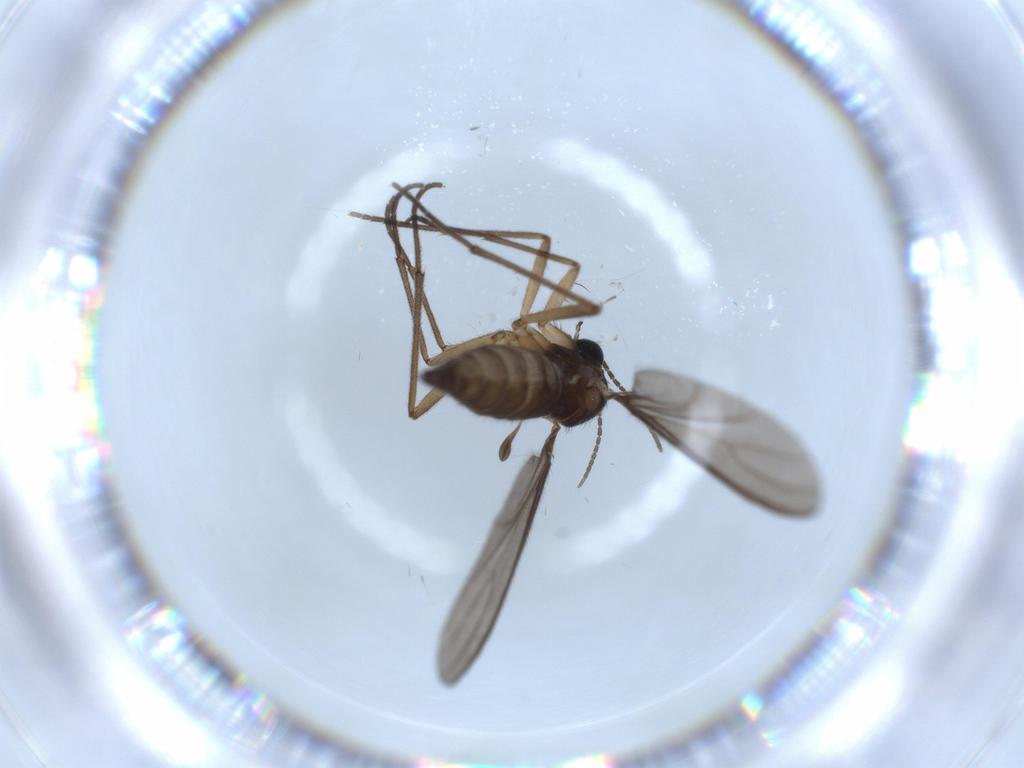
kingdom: Animalia
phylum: Arthropoda
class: Insecta
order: Diptera
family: Sciaridae
